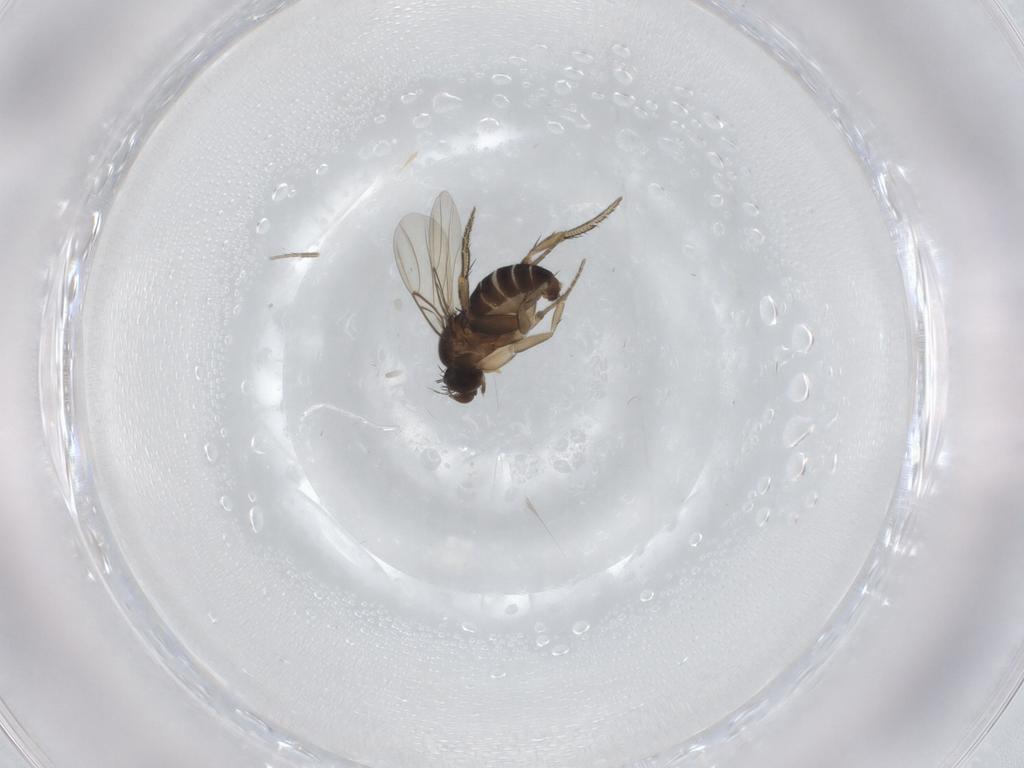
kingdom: Animalia
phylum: Arthropoda
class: Insecta
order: Diptera
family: Phoridae
